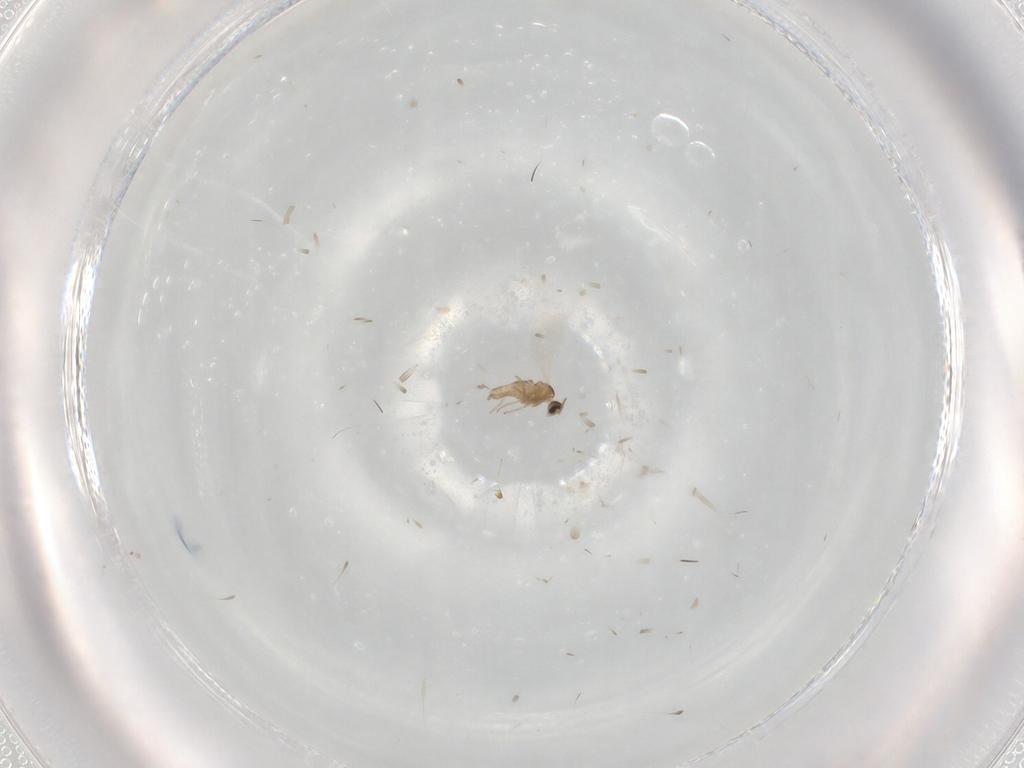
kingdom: Animalia
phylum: Arthropoda
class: Insecta
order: Diptera
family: Cecidomyiidae
